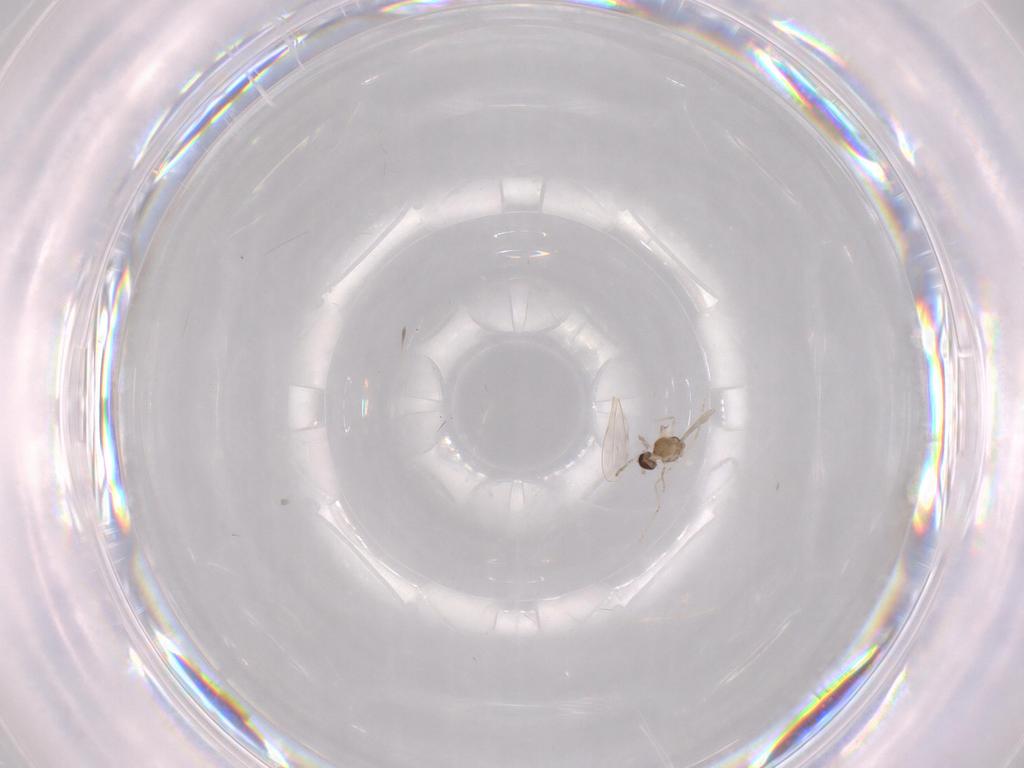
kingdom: Animalia
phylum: Arthropoda
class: Insecta
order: Diptera
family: Cecidomyiidae
